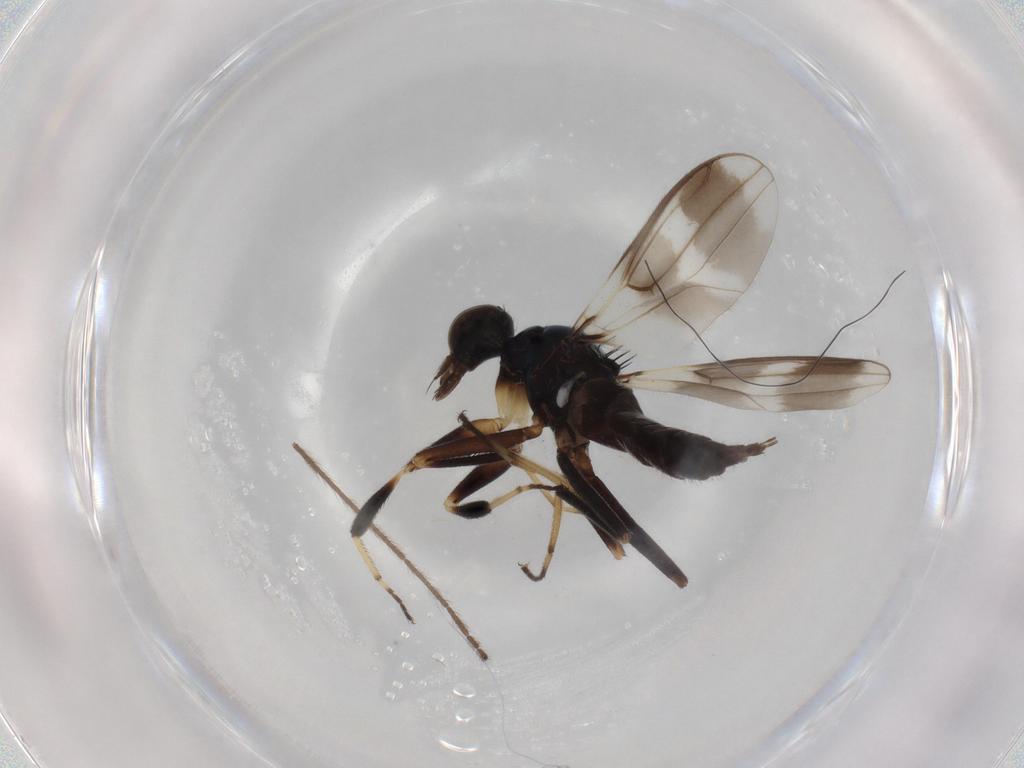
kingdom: Animalia
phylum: Arthropoda
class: Insecta
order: Diptera
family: Hybotidae
